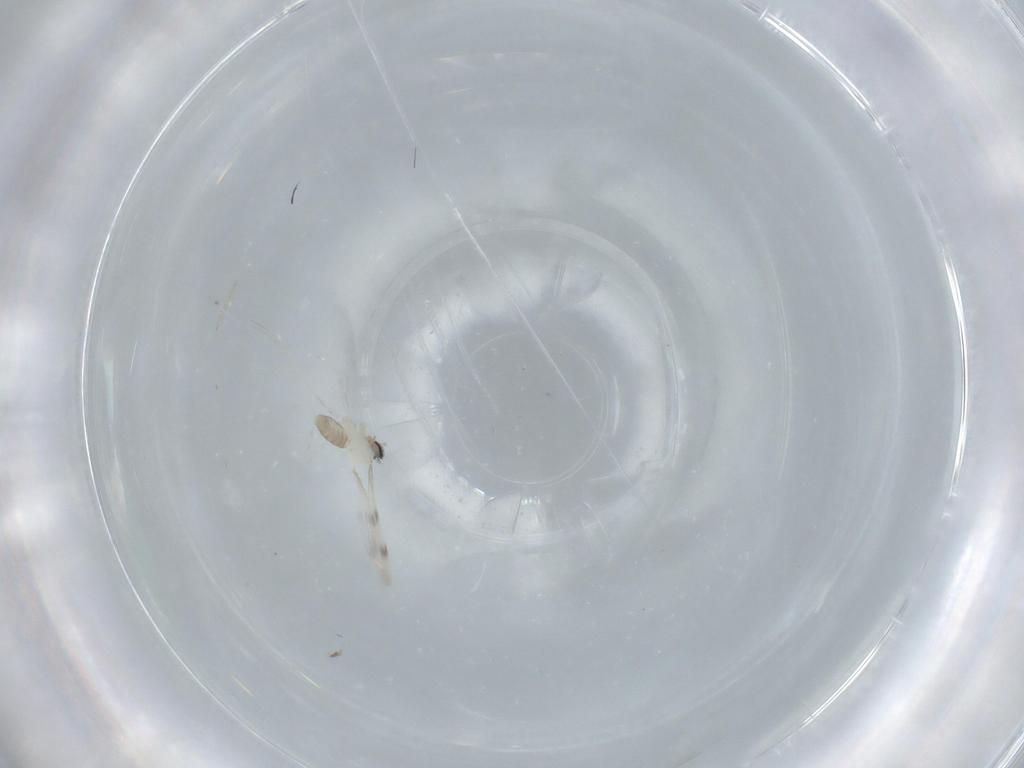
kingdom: Animalia
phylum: Arthropoda
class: Insecta
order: Diptera
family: Cecidomyiidae
